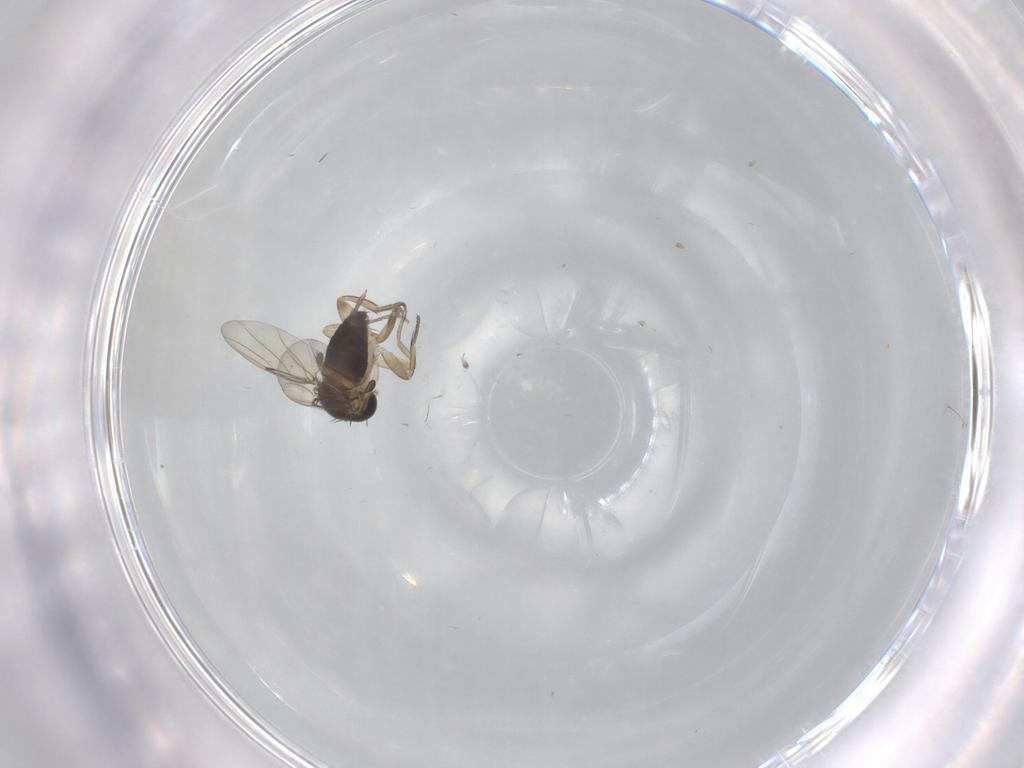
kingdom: Animalia
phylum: Arthropoda
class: Insecta
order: Diptera
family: Phoridae
